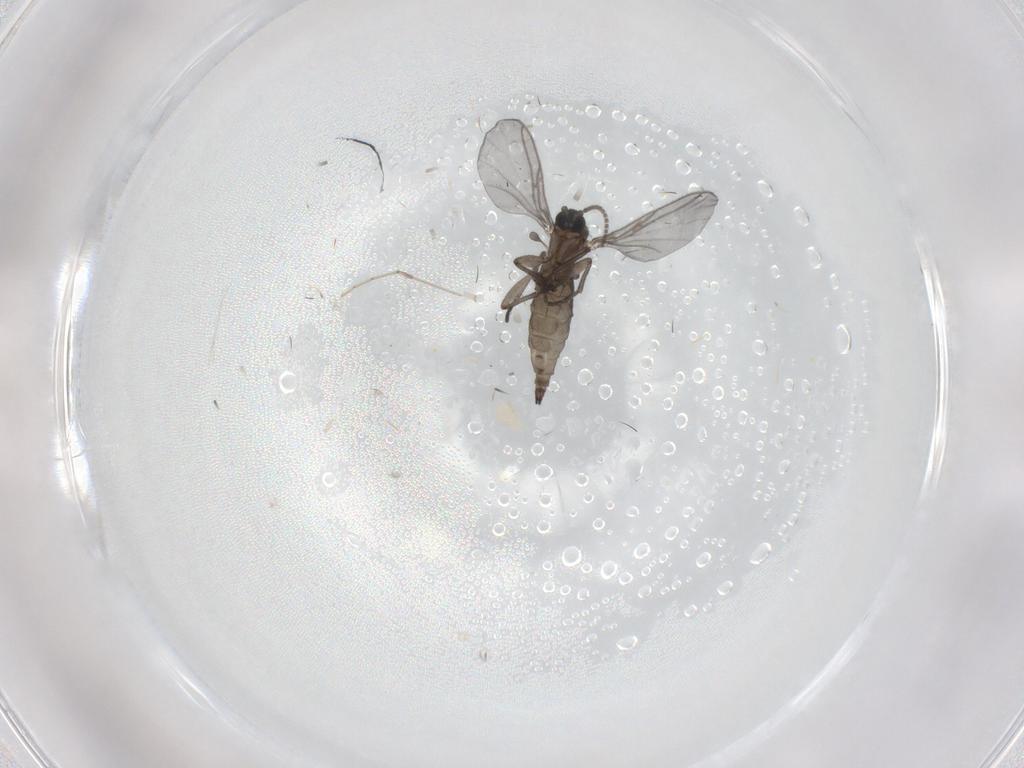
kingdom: Animalia
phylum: Arthropoda
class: Insecta
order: Diptera
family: Sciaridae
